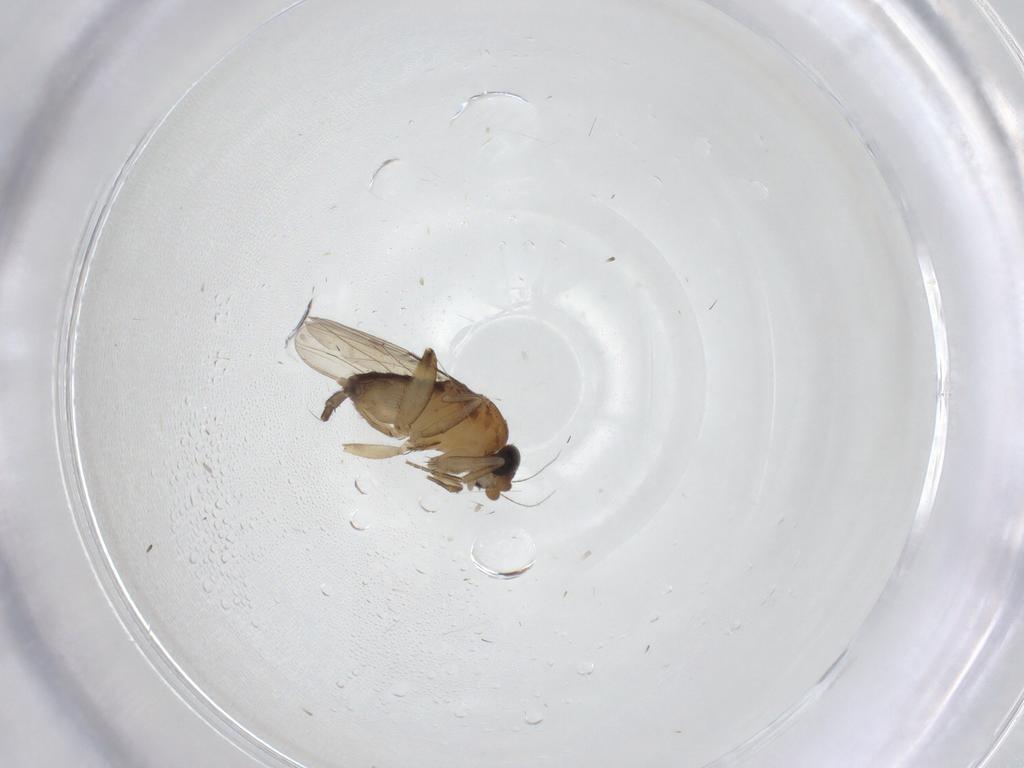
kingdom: Animalia
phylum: Arthropoda
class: Insecta
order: Diptera
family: Phoridae
